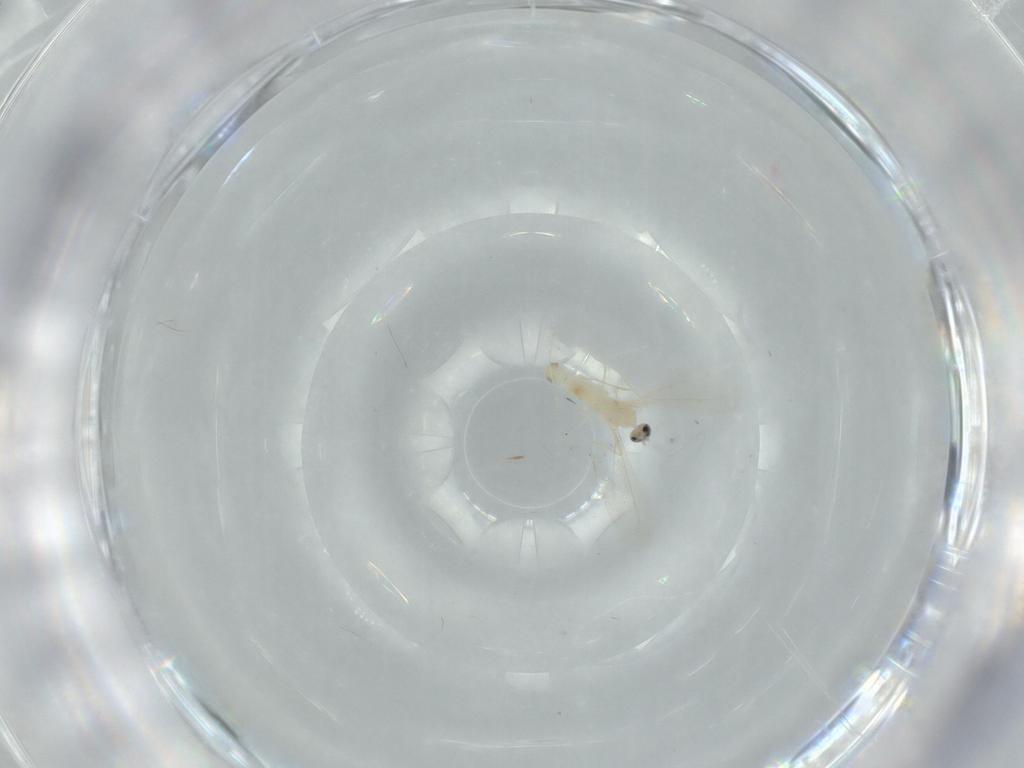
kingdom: Animalia
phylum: Arthropoda
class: Insecta
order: Diptera
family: Cecidomyiidae
